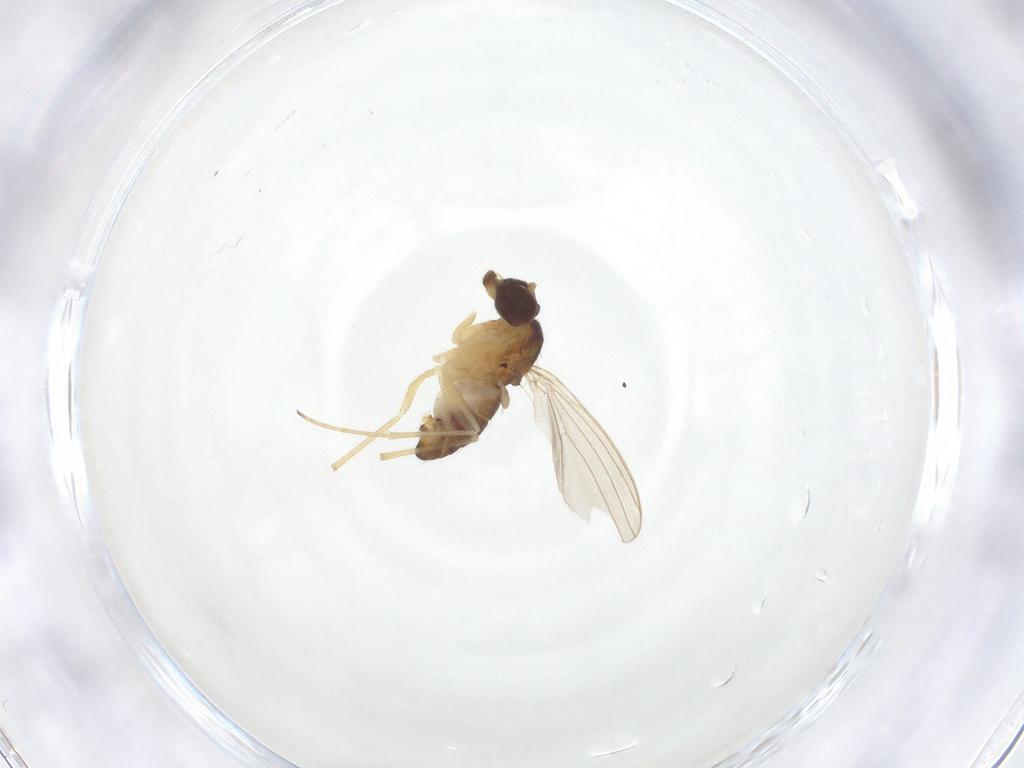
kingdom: Animalia
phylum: Arthropoda
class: Insecta
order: Diptera
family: Dolichopodidae
